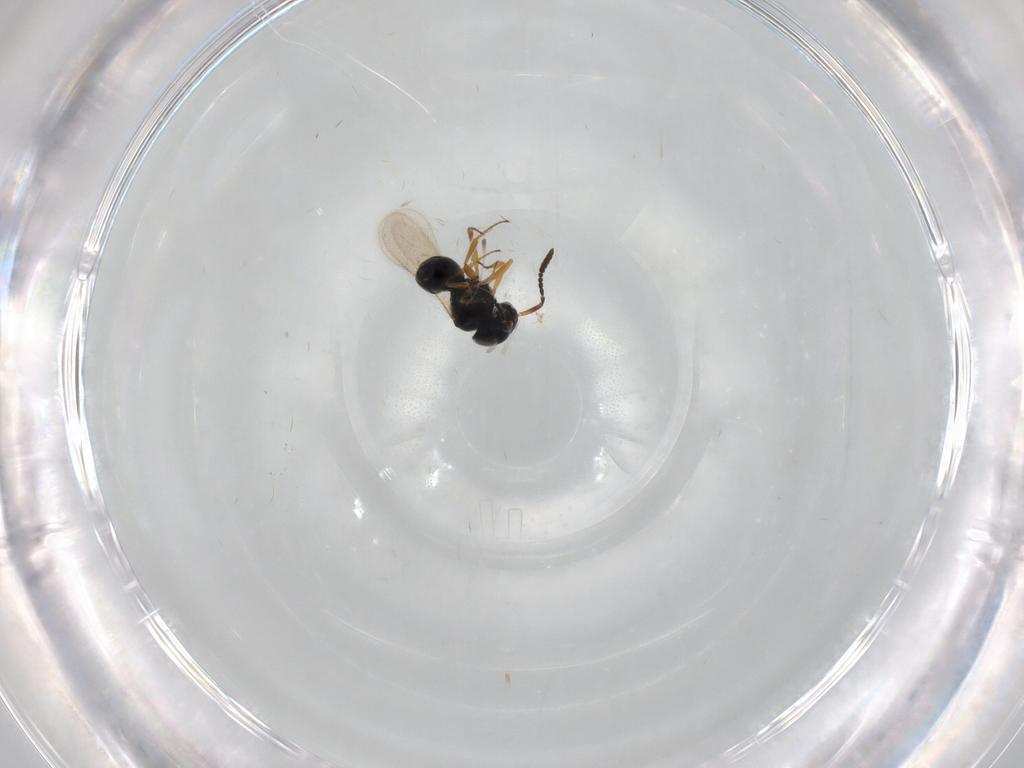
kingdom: Animalia
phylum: Arthropoda
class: Insecta
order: Hymenoptera
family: Scelionidae
